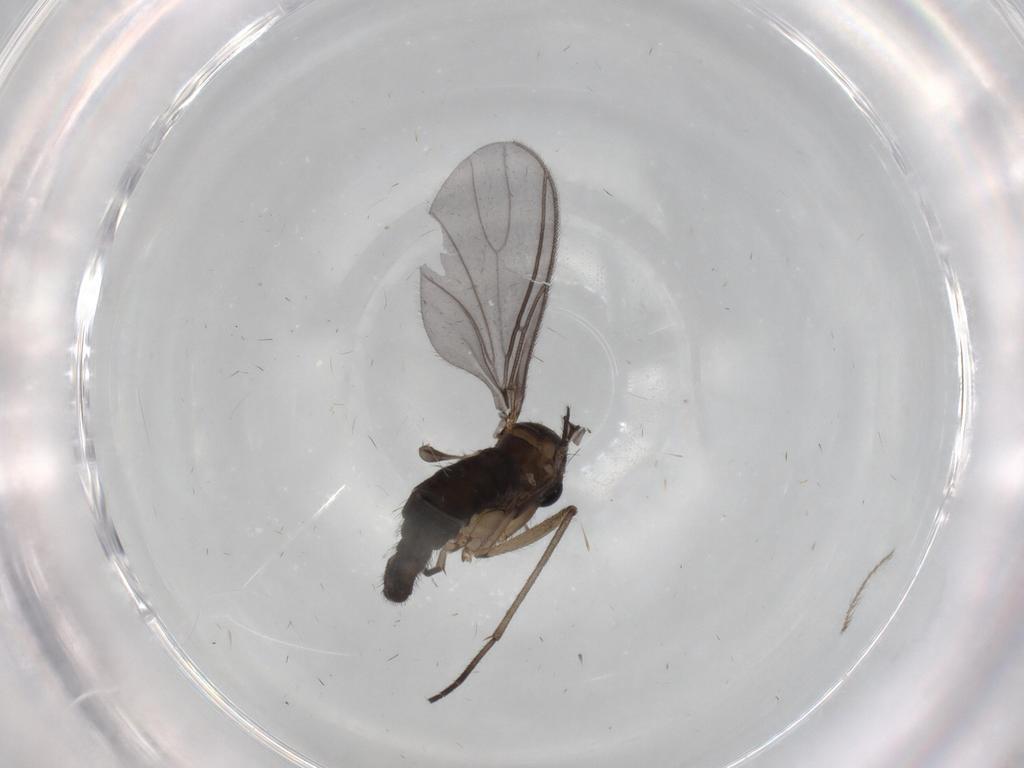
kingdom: Animalia
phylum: Arthropoda
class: Insecta
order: Diptera
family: Sciaridae
